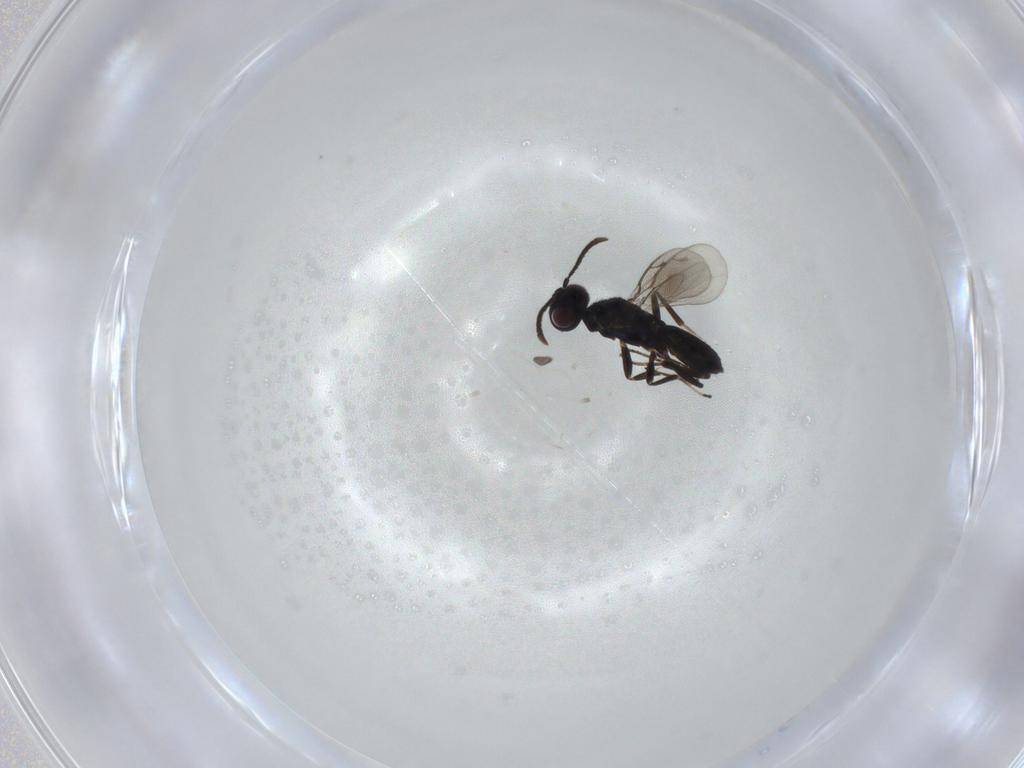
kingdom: Animalia
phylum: Arthropoda
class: Insecta
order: Hymenoptera
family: Eupelmidae
